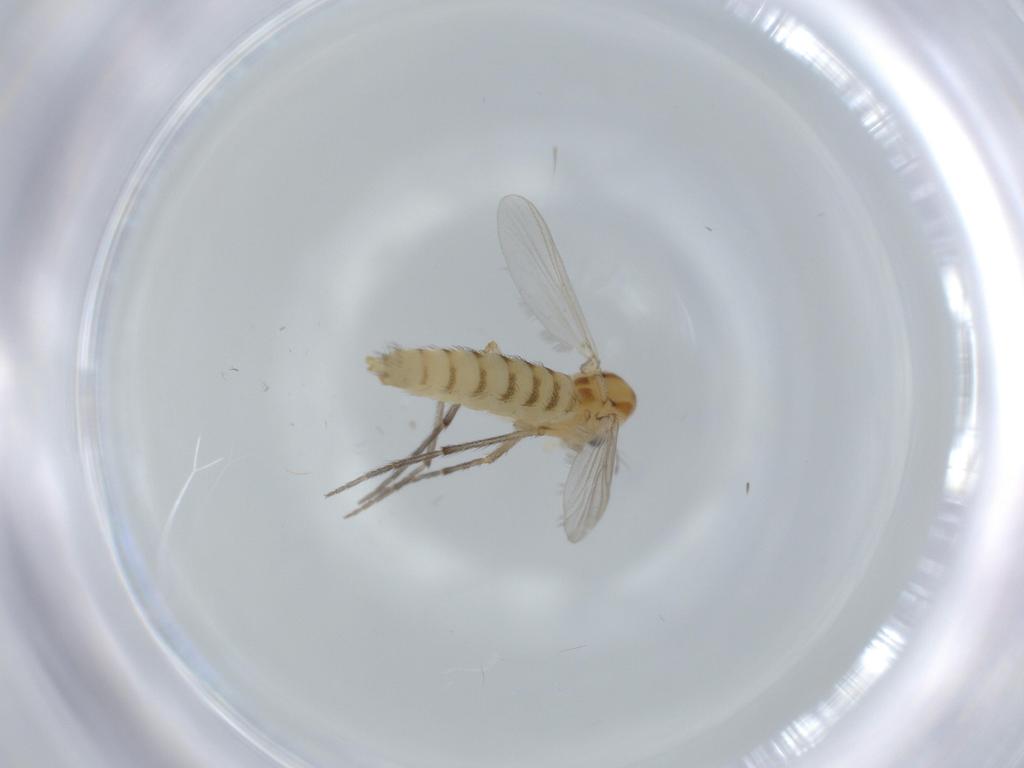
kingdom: Animalia
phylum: Arthropoda
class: Insecta
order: Diptera
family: Chironomidae
